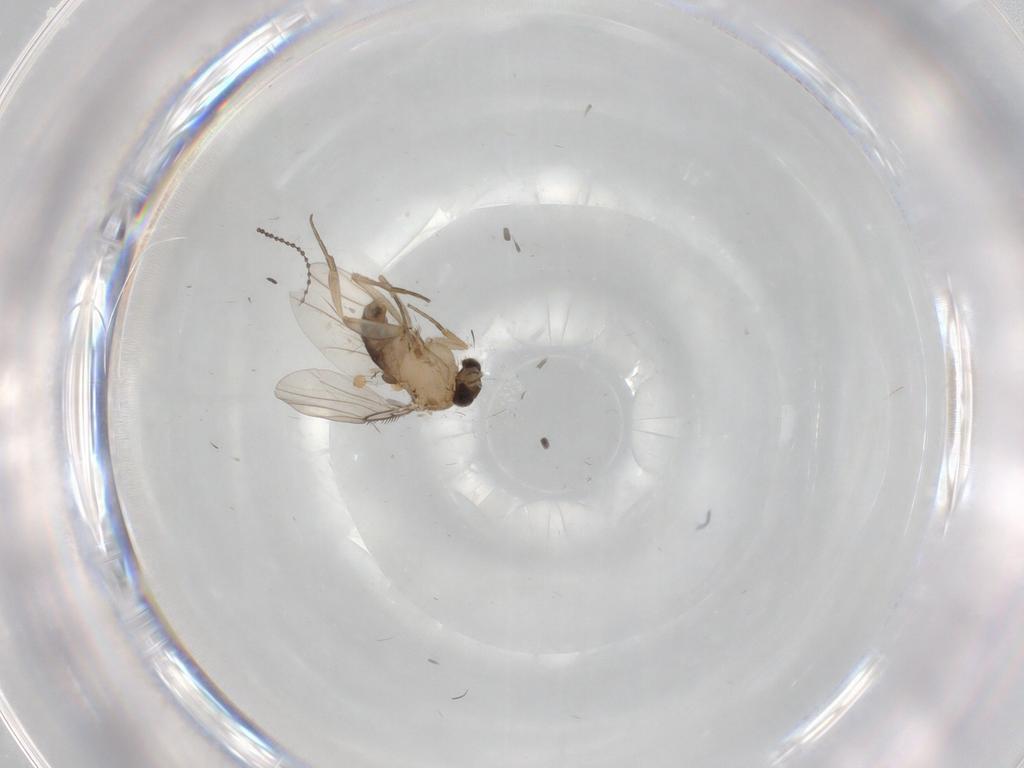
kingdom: Animalia
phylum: Arthropoda
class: Insecta
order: Diptera
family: Phoridae
